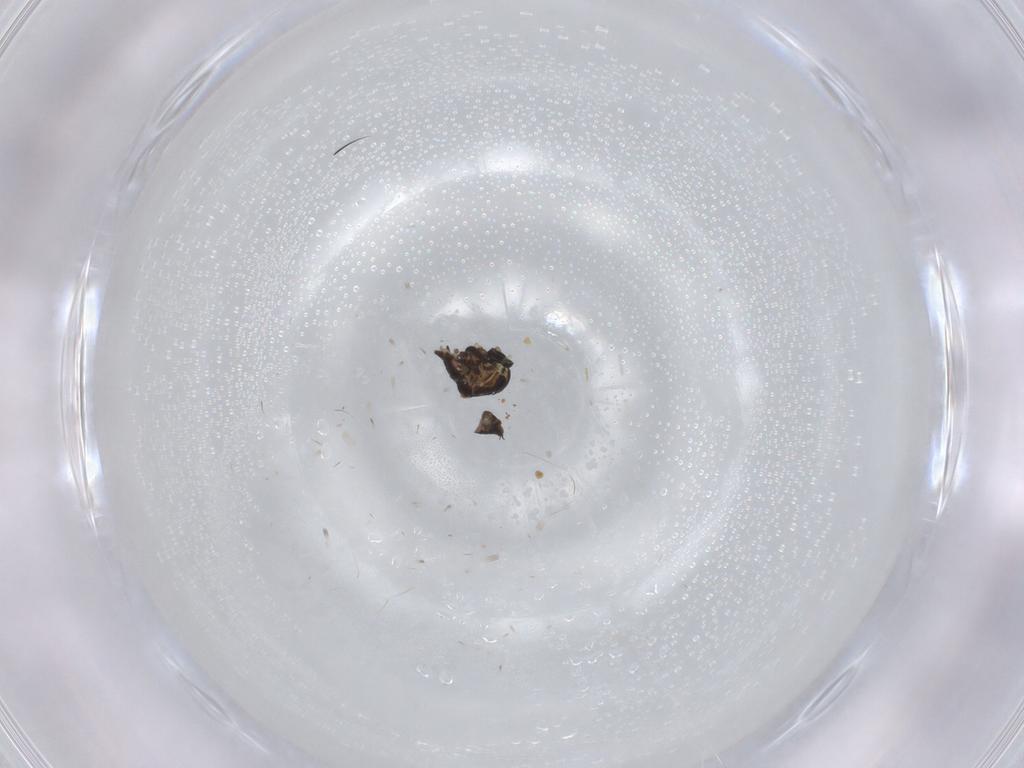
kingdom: Animalia
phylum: Arthropoda
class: Insecta
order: Diptera
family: Ceratopogonidae
